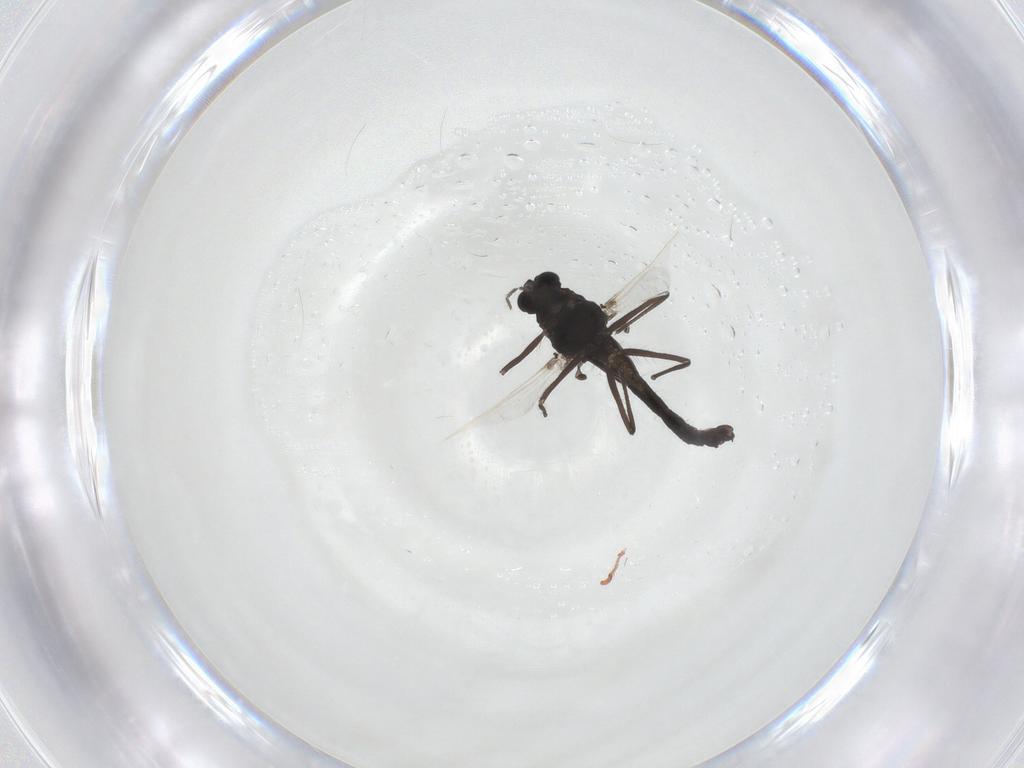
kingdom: Animalia
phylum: Arthropoda
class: Insecta
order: Diptera
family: Chironomidae
